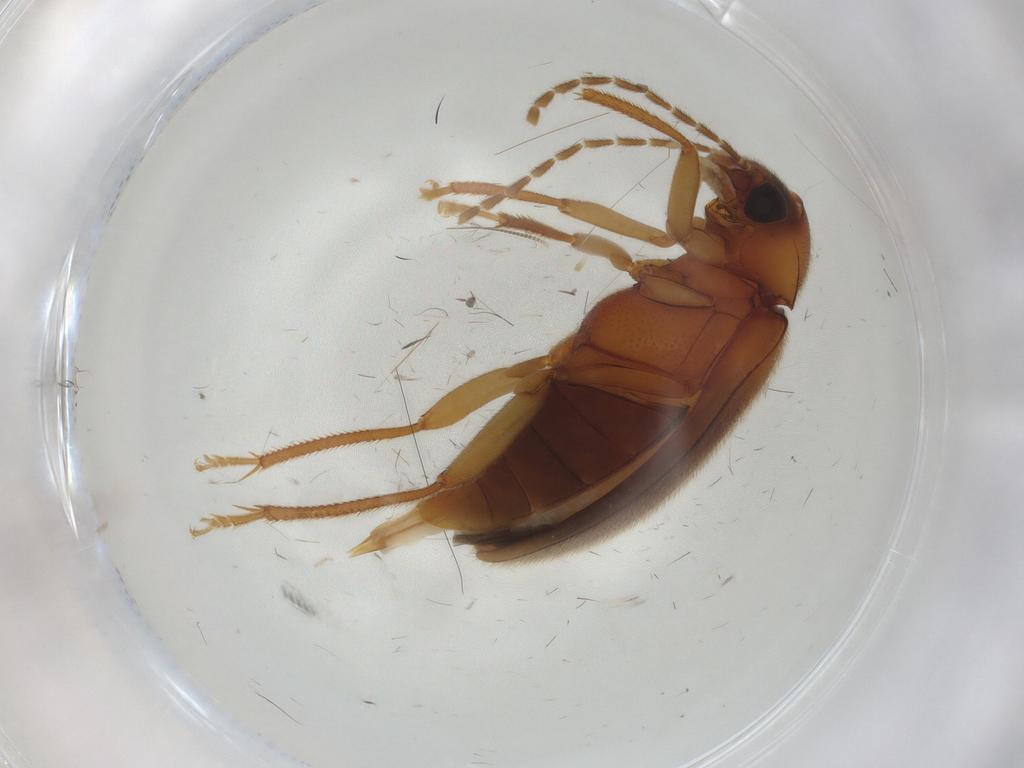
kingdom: Animalia
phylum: Arthropoda
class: Insecta
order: Coleoptera
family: Ptilodactylidae
